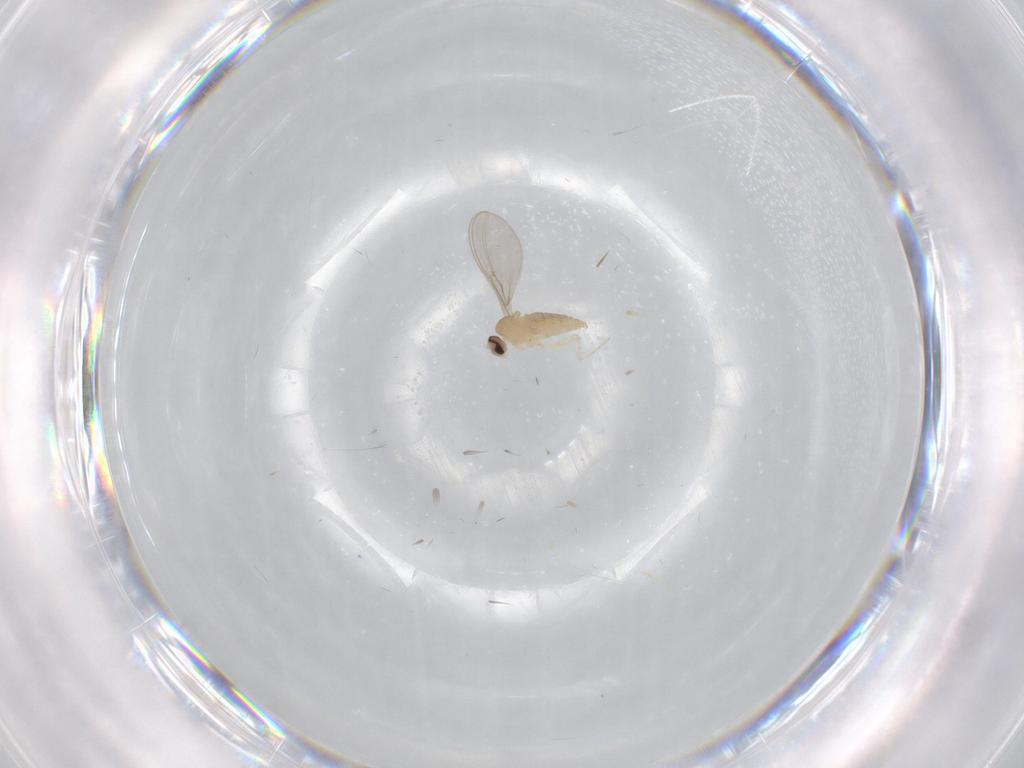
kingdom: Animalia
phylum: Arthropoda
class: Insecta
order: Diptera
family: Cecidomyiidae
